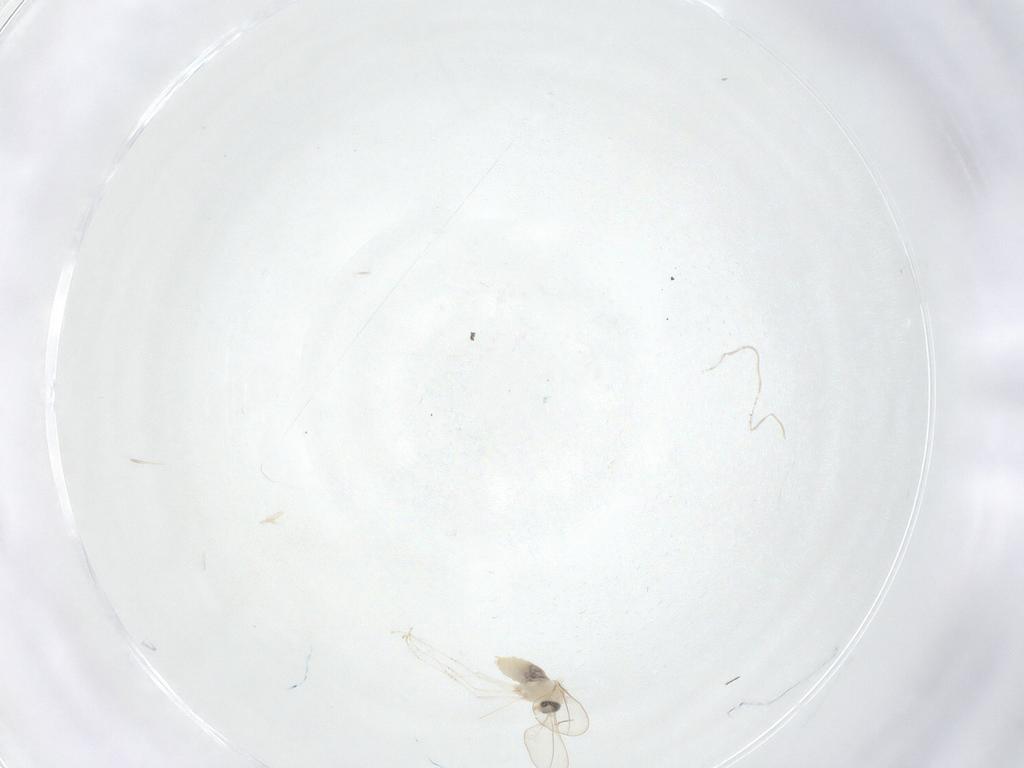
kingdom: Animalia
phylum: Arthropoda
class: Insecta
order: Diptera
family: Cecidomyiidae
